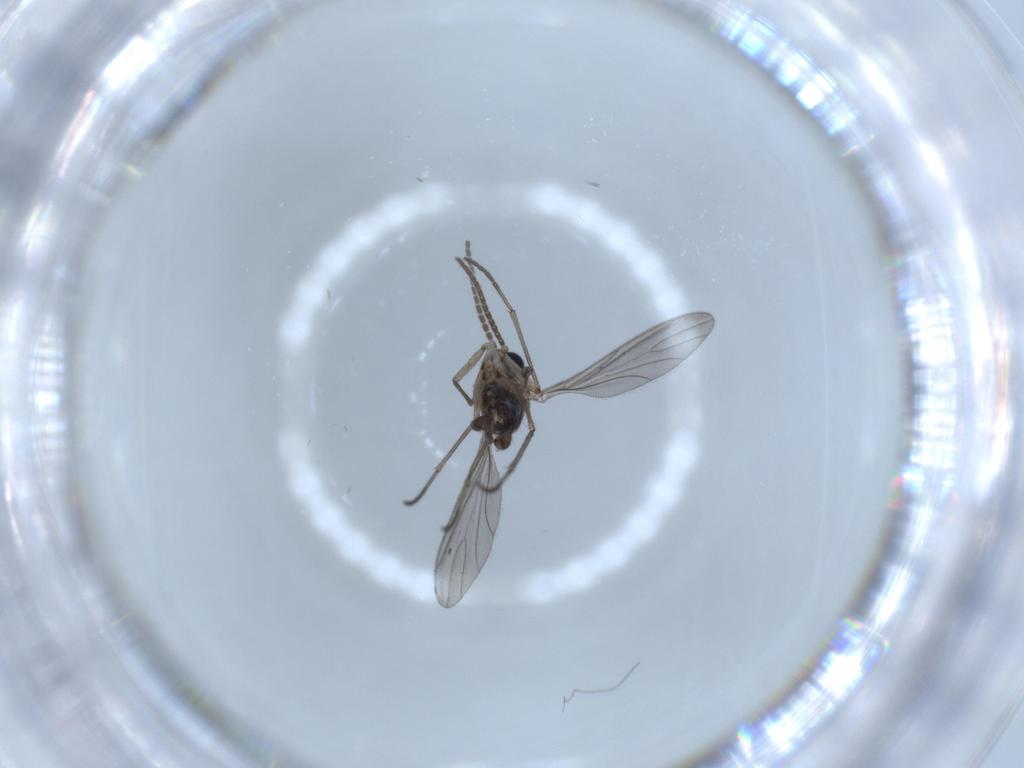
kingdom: Animalia
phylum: Arthropoda
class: Insecta
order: Diptera
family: Sciaridae
